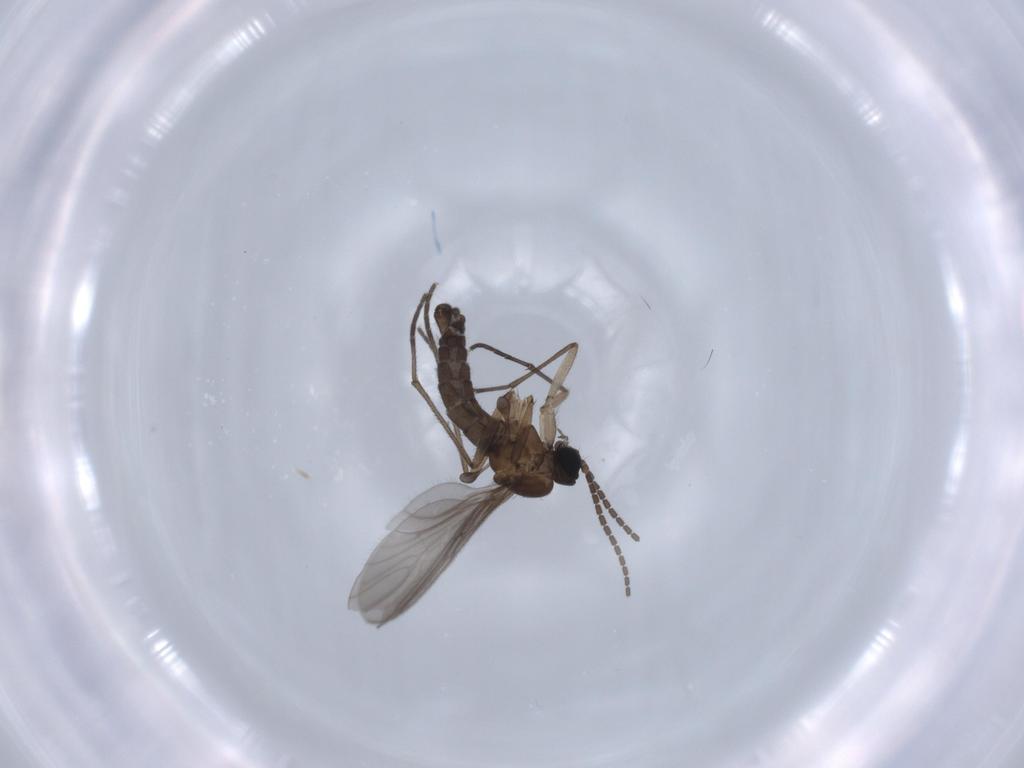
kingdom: Animalia
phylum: Arthropoda
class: Insecta
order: Diptera
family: Sciaridae
